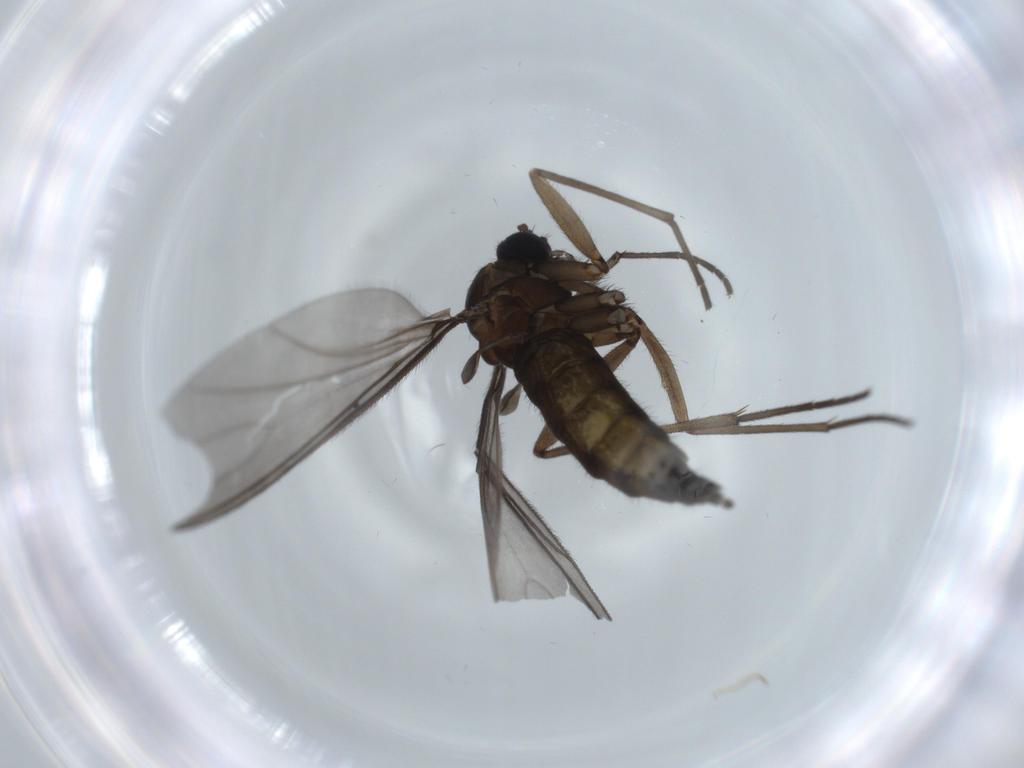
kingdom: Animalia
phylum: Arthropoda
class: Insecta
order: Diptera
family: Sciaridae
